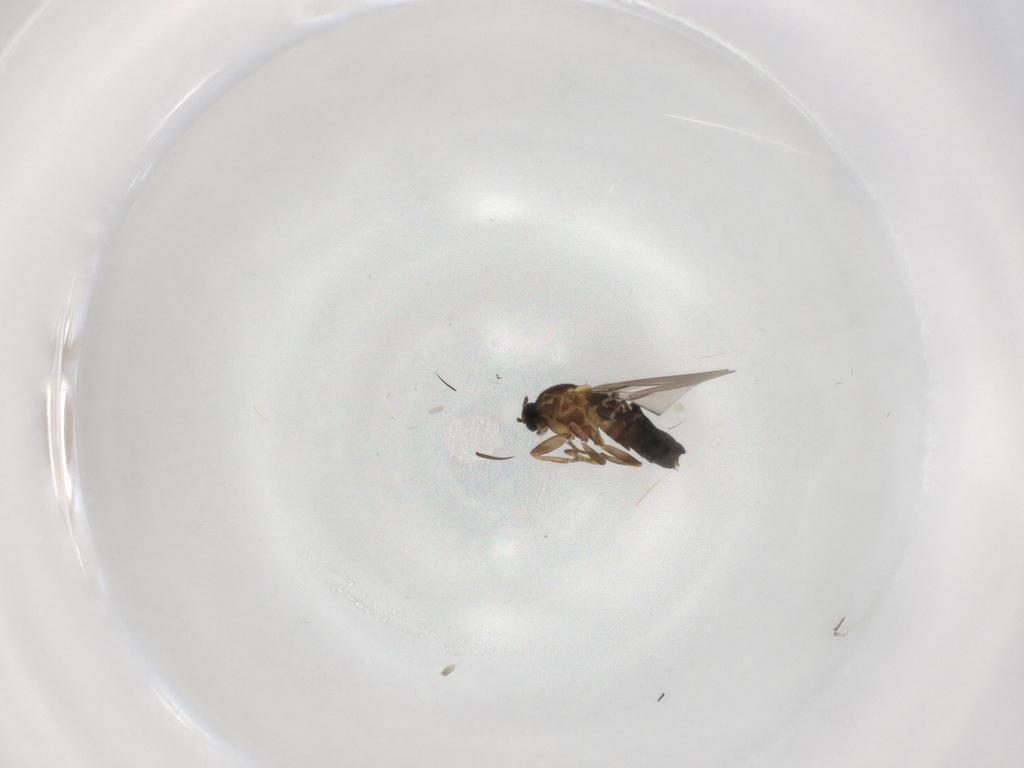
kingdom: Animalia
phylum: Arthropoda
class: Insecta
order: Diptera
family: Scatopsidae
